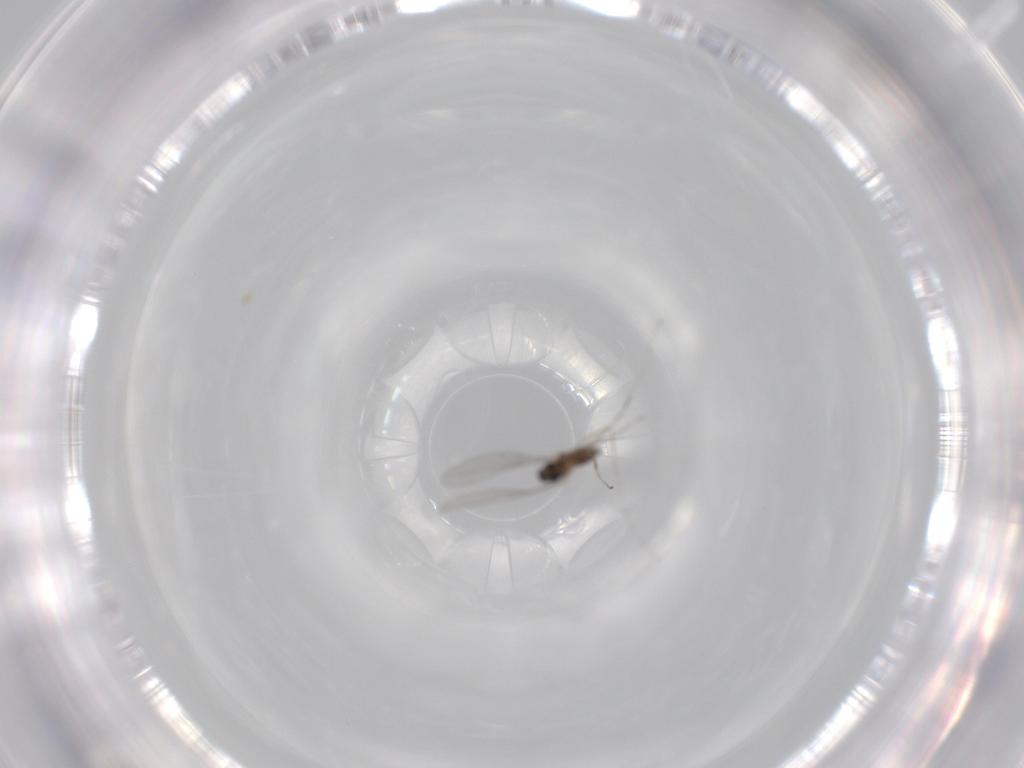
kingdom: Animalia
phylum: Arthropoda
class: Insecta
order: Diptera
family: Cecidomyiidae
